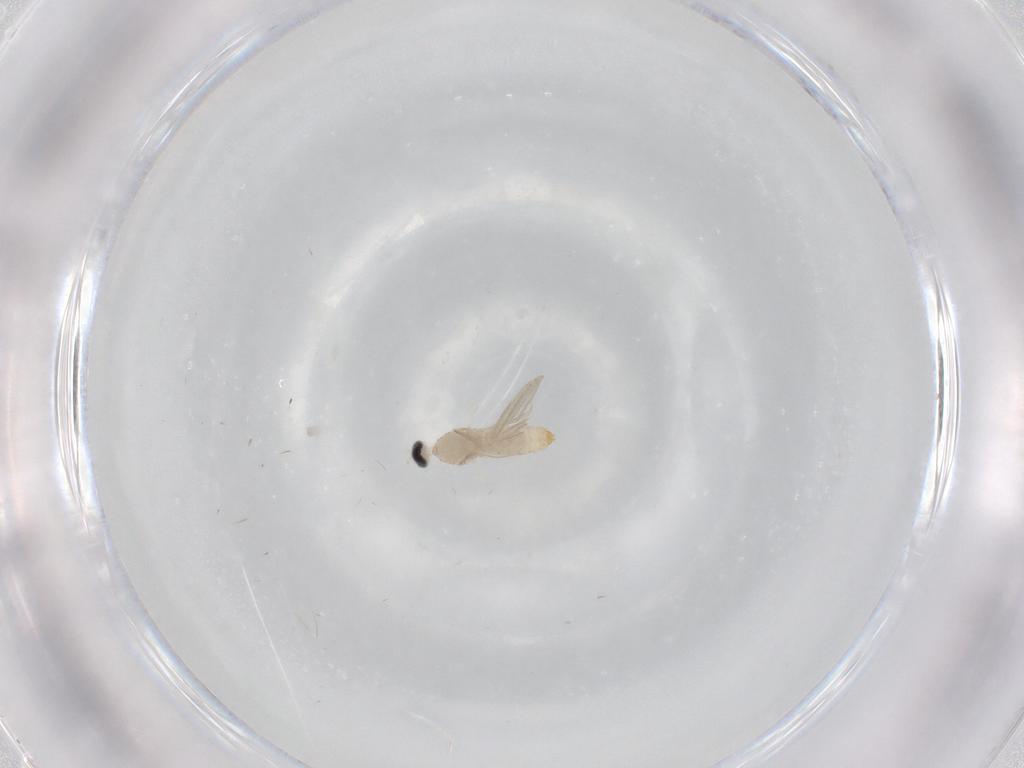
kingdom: Animalia
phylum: Arthropoda
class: Insecta
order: Diptera
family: Cecidomyiidae
